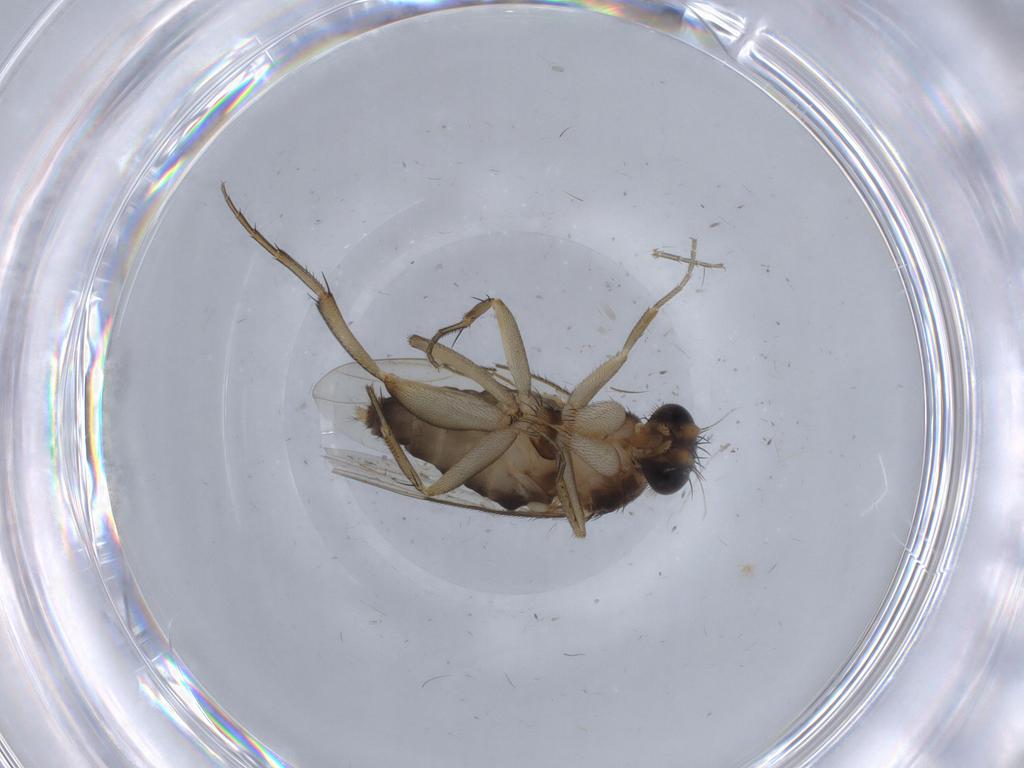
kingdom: Animalia
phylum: Arthropoda
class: Insecta
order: Diptera
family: Phoridae
